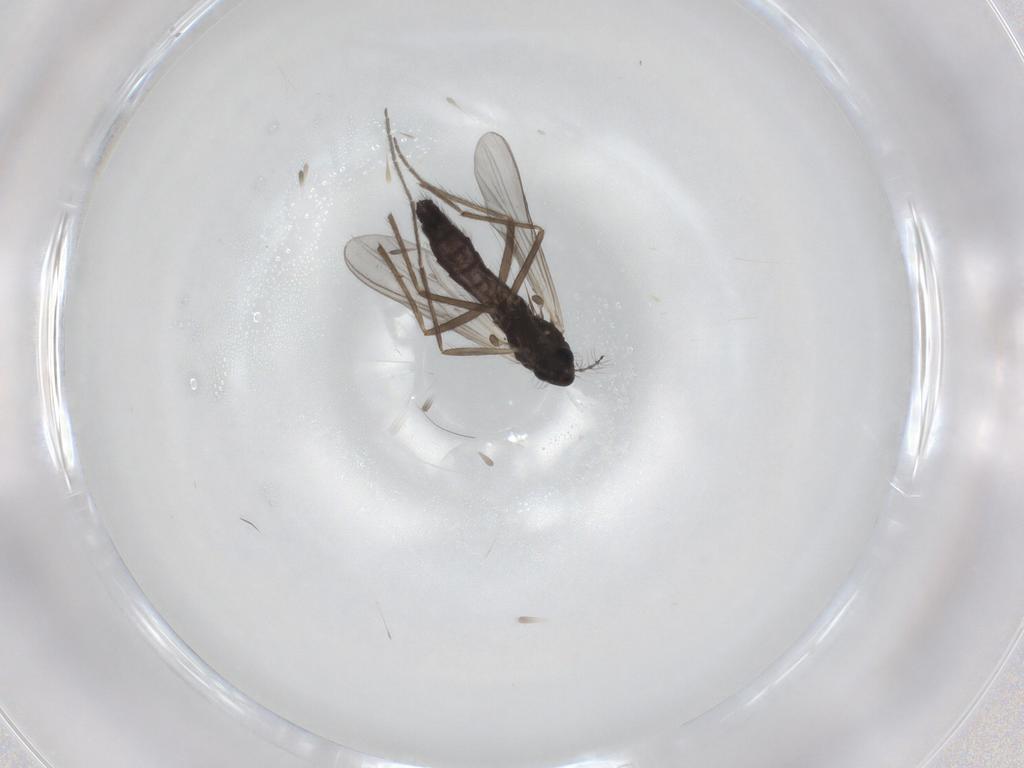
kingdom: Animalia
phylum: Arthropoda
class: Insecta
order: Diptera
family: Chironomidae
